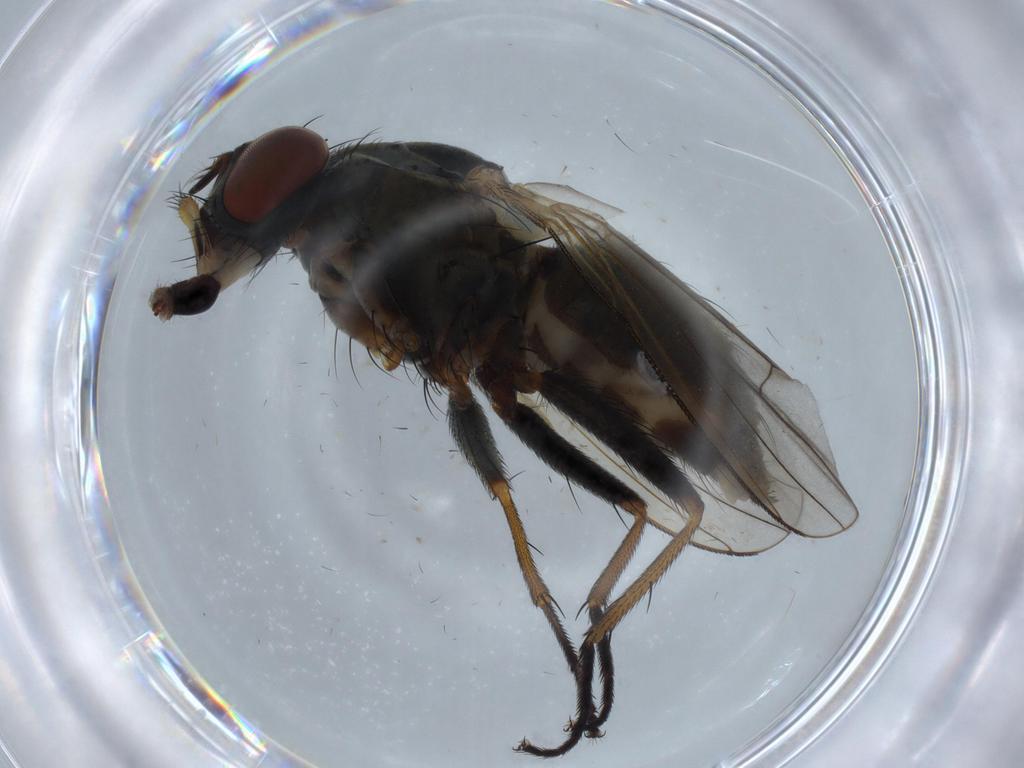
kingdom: Animalia
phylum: Arthropoda
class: Insecta
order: Diptera
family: Muscidae
